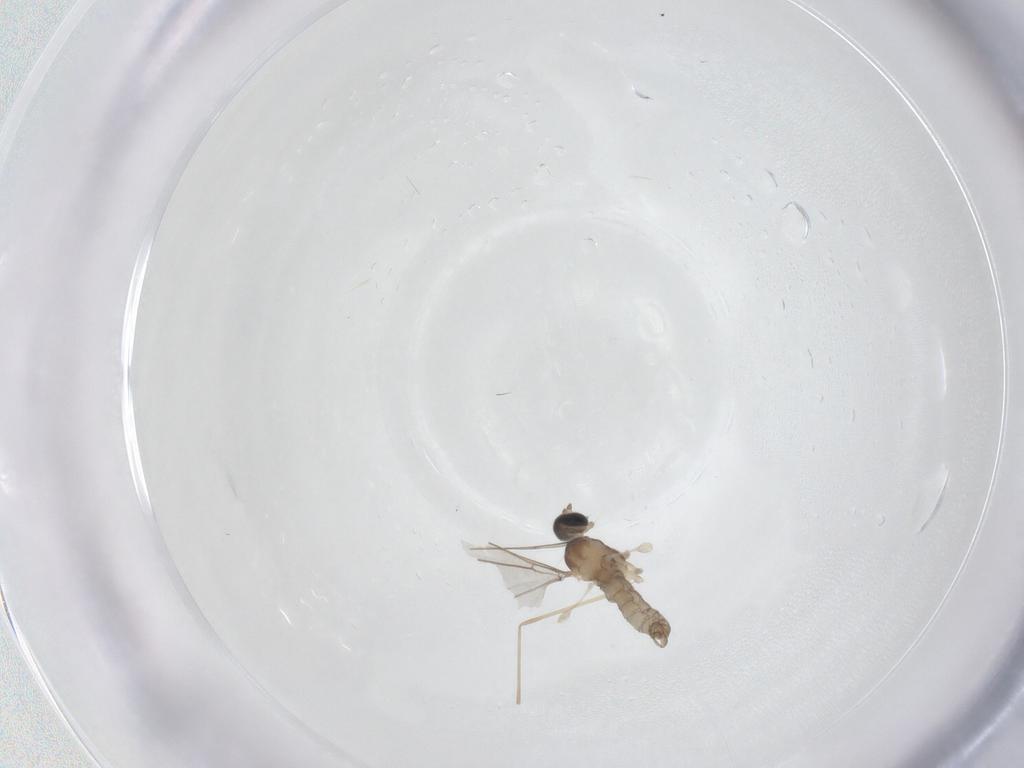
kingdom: Animalia
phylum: Arthropoda
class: Insecta
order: Diptera
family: Cecidomyiidae
